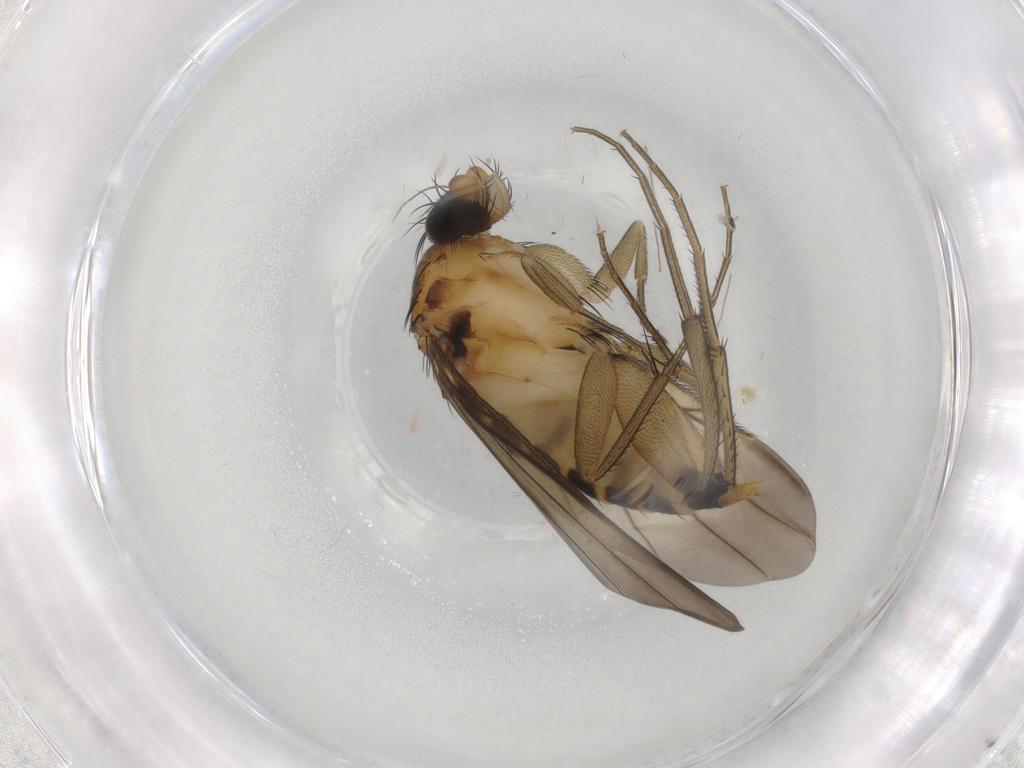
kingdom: Animalia
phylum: Arthropoda
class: Insecta
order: Diptera
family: Phoridae
